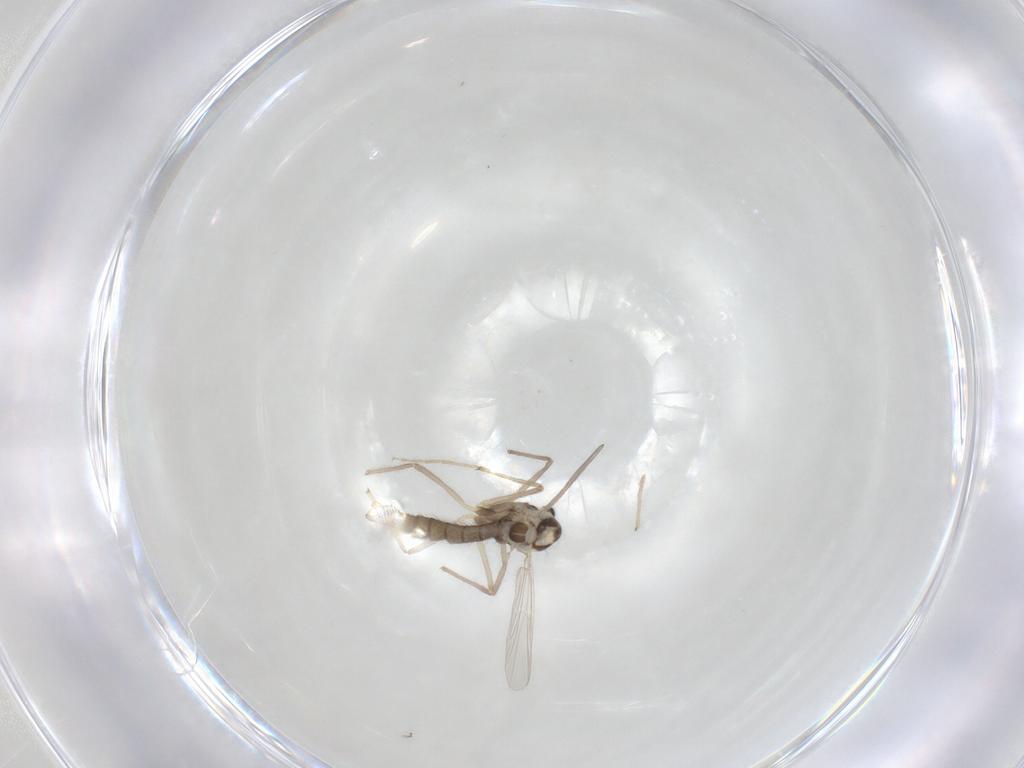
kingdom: Animalia
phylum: Arthropoda
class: Insecta
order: Diptera
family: Chironomidae
